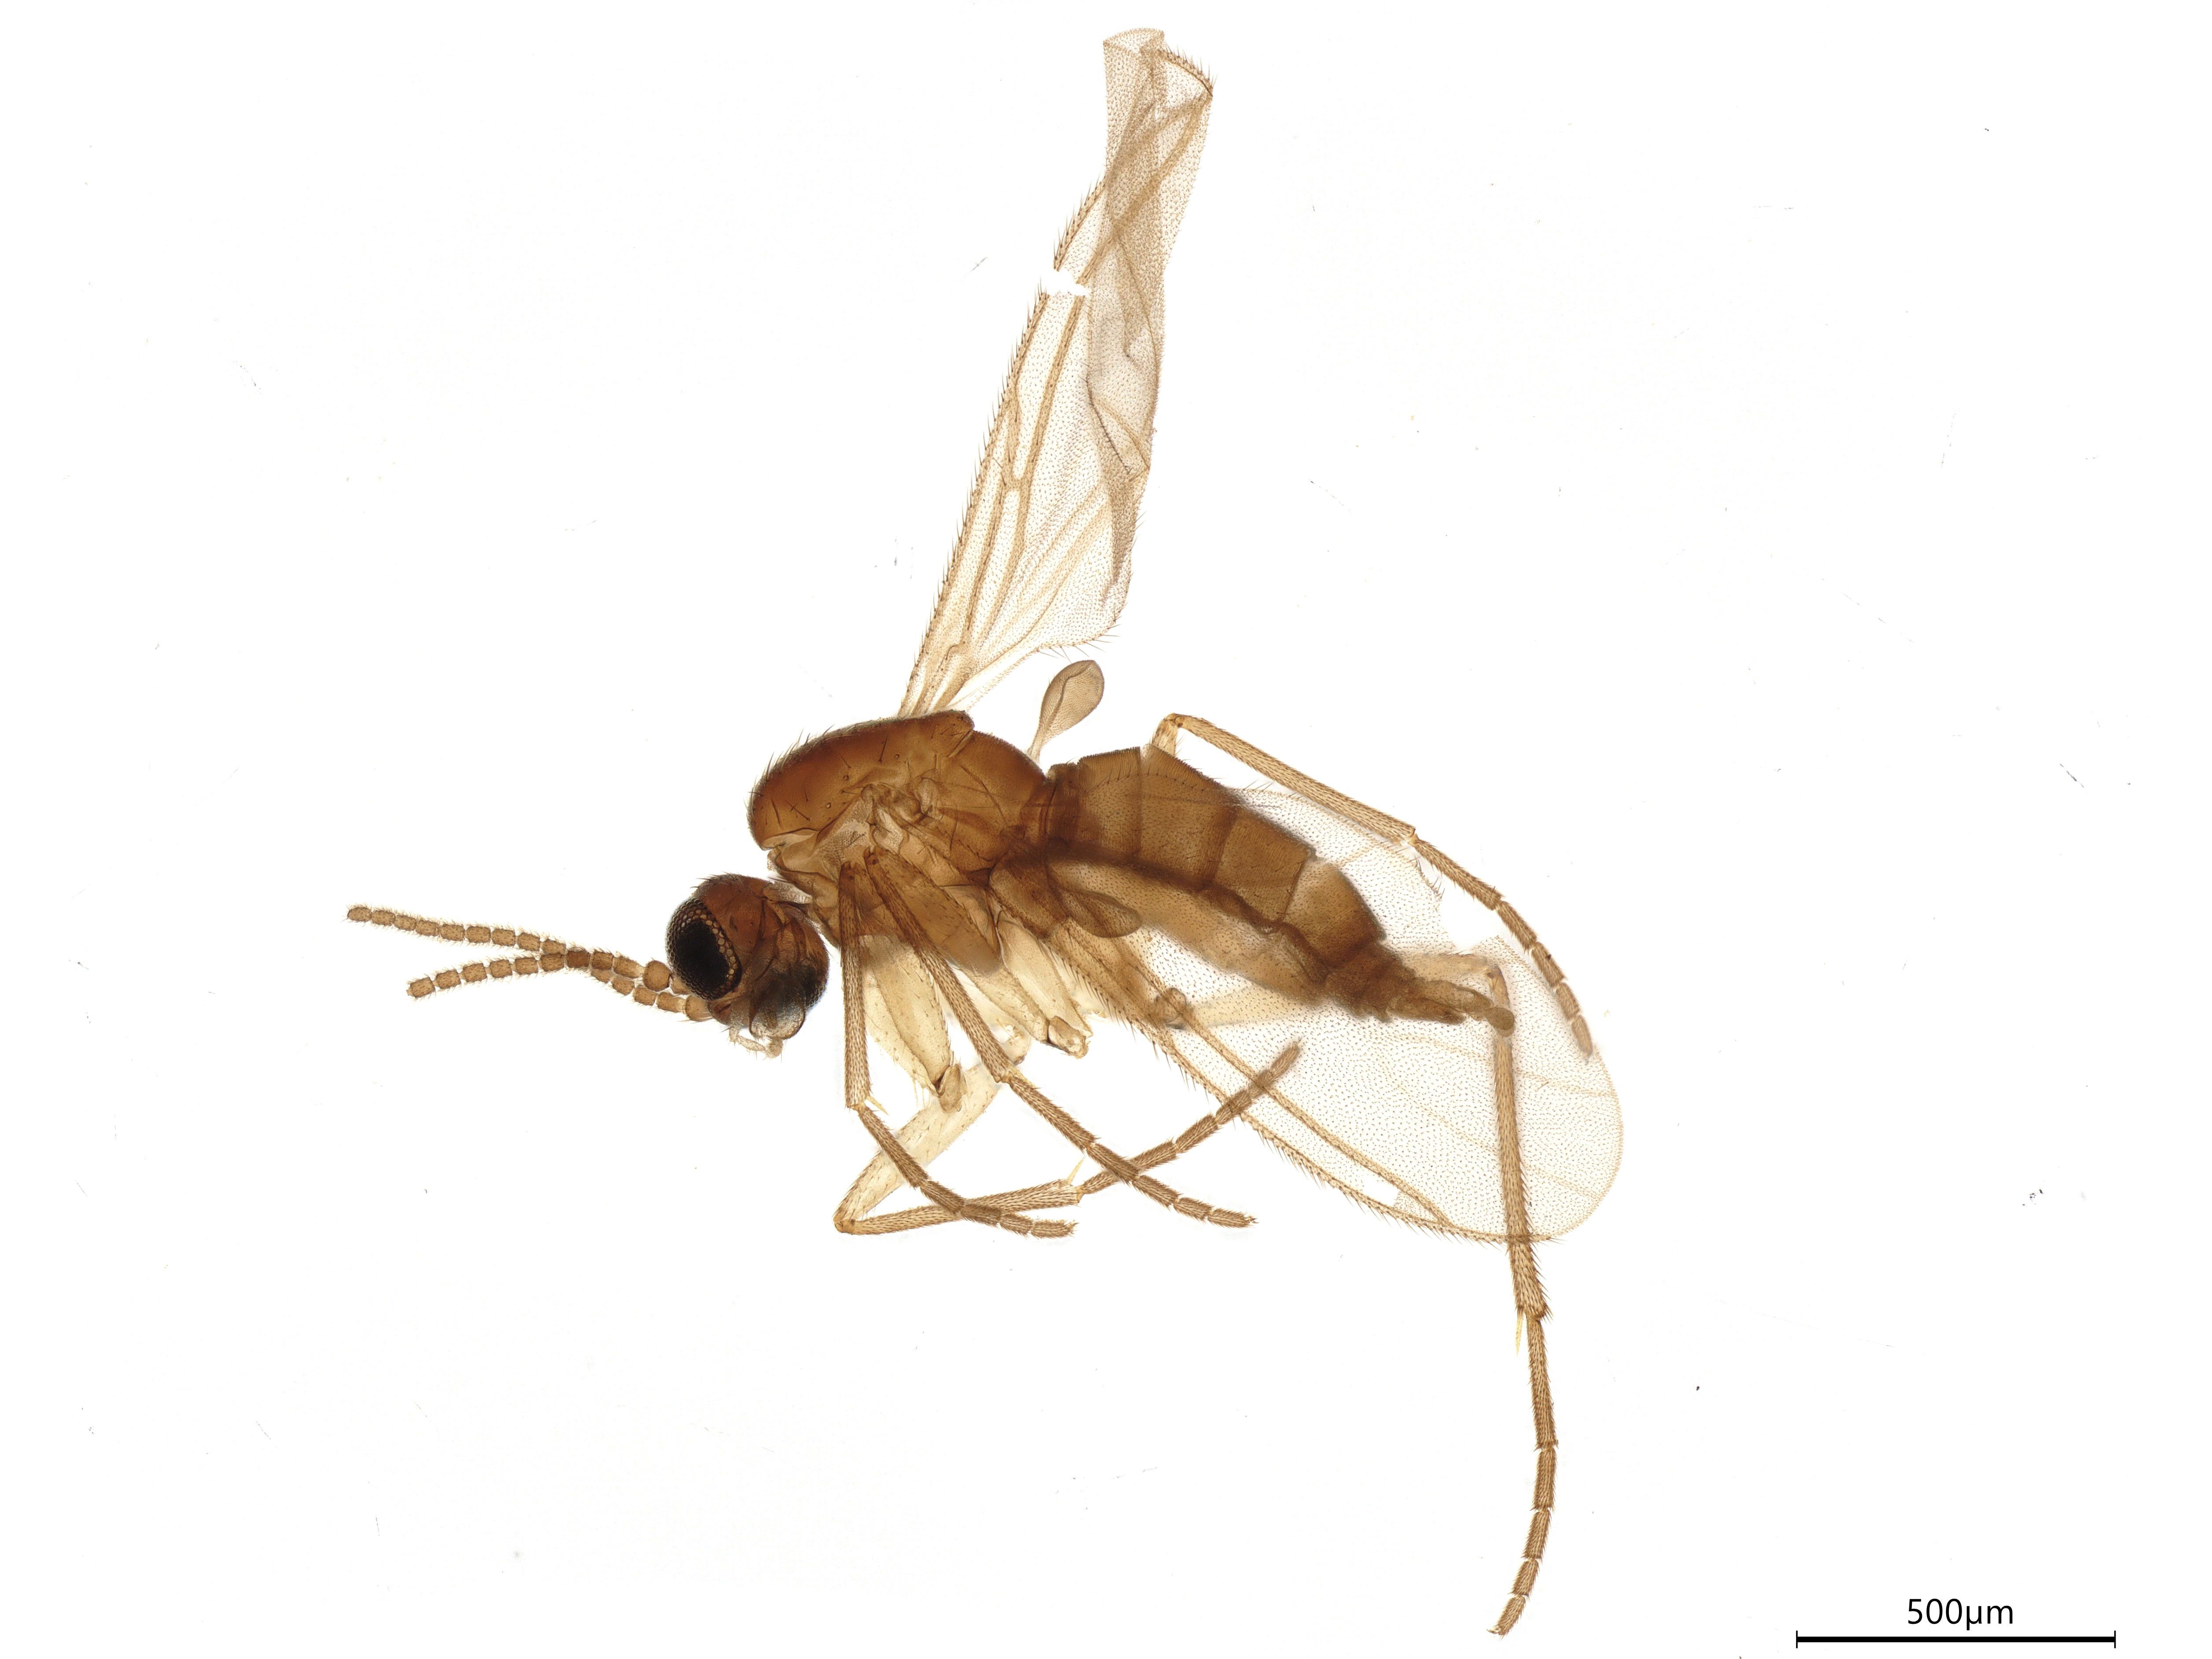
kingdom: Animalia
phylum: Arthropoda
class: Insecta
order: Diptera
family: Phoridae
